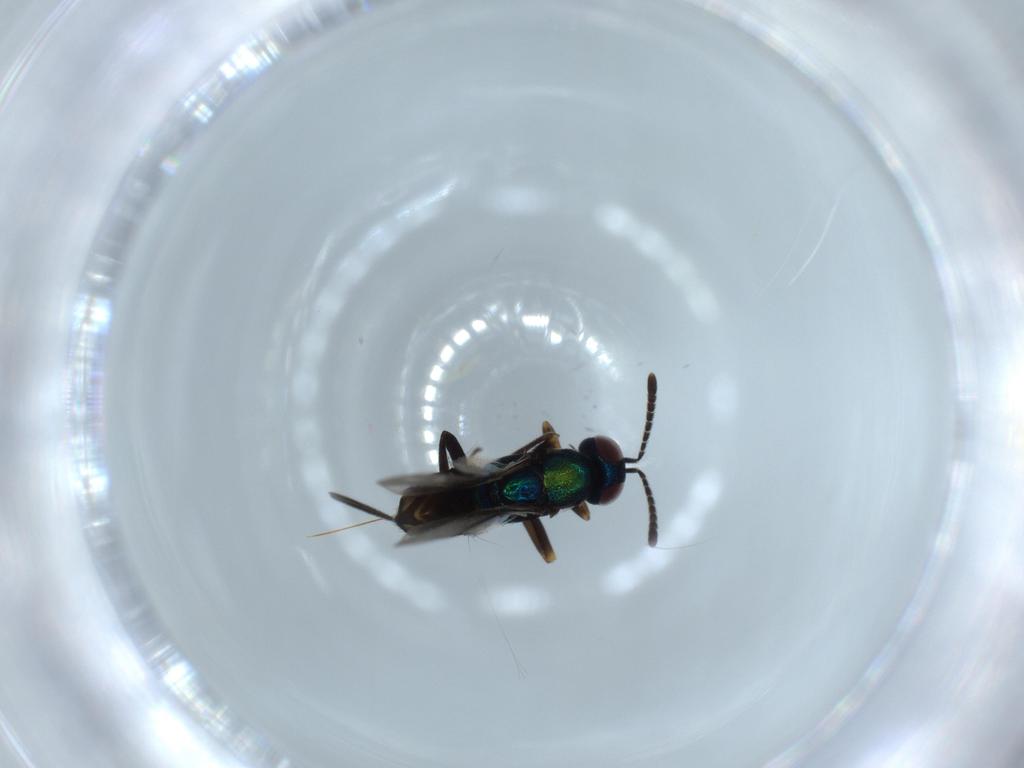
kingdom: Animalia
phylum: Arthropoda
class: Insecta
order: Hymenoptera
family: Encyrtidae
